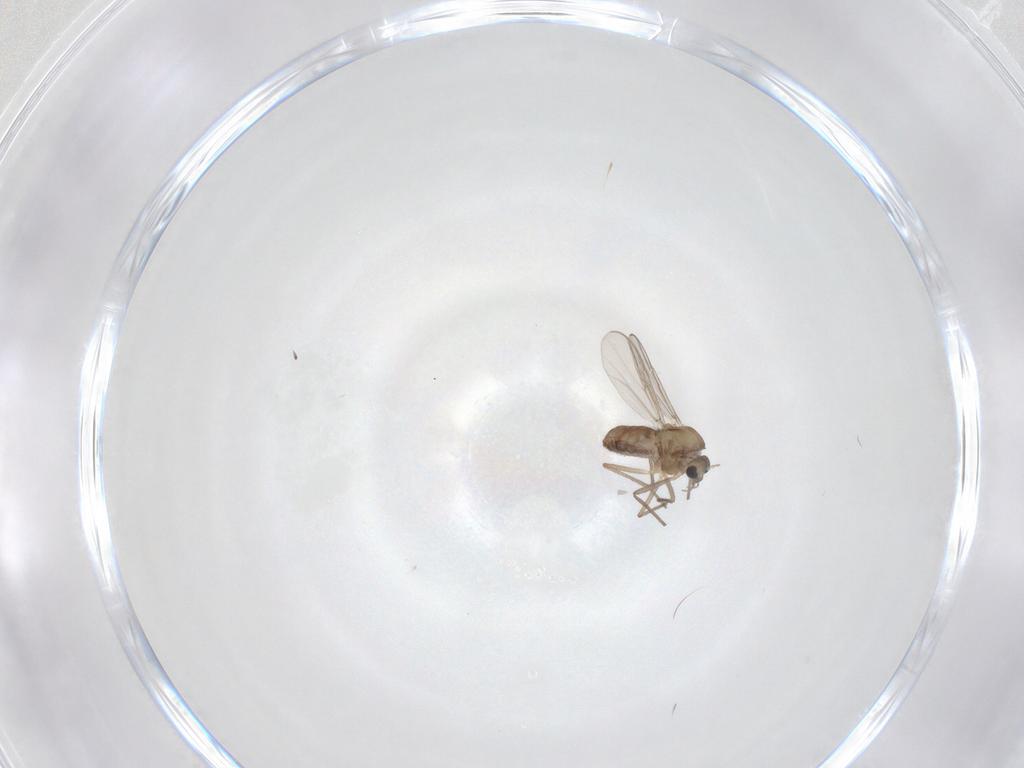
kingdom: Animalia
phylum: Arthropoda
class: Insecta
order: Diptera
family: Chironomidae
